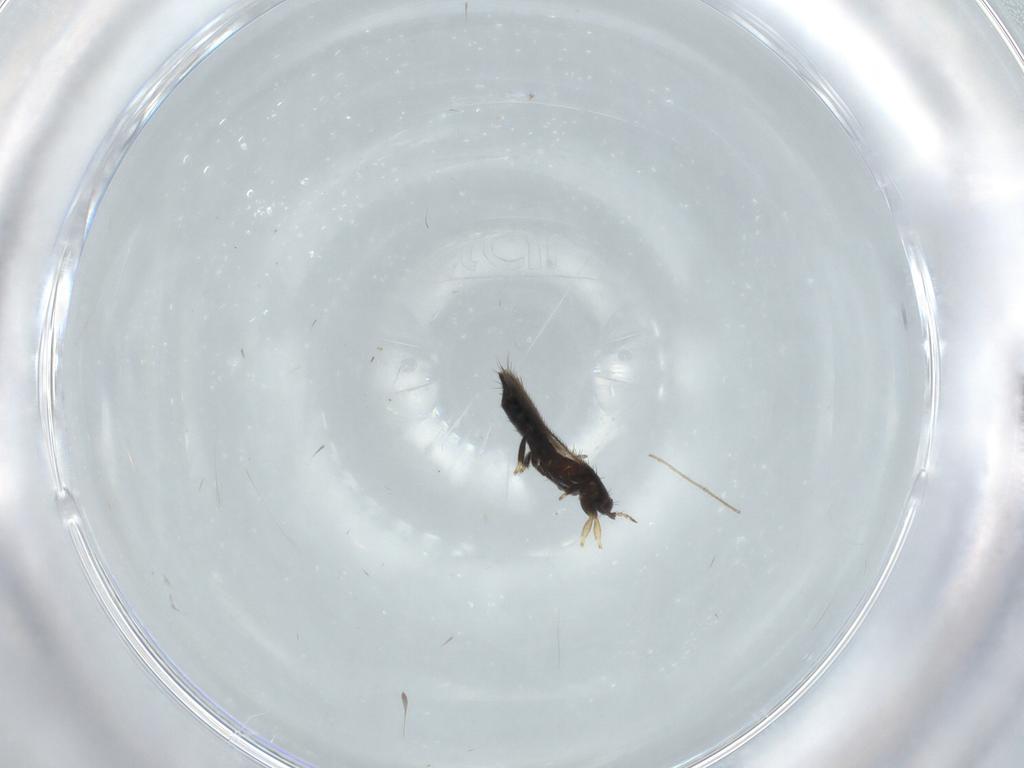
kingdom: Animalia
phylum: Arthropoda
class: Insecta
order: Thysanoptera
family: Thripidae
